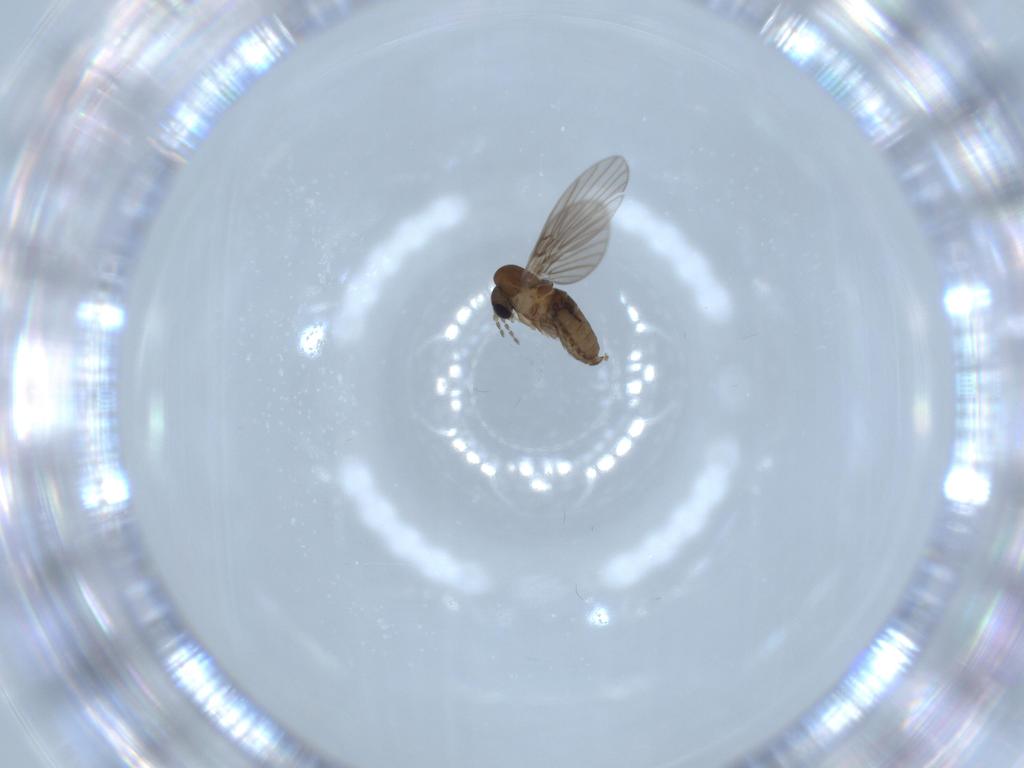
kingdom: Animalia
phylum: Arthropoda
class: Insecta
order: Diptera
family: Psychodidae
